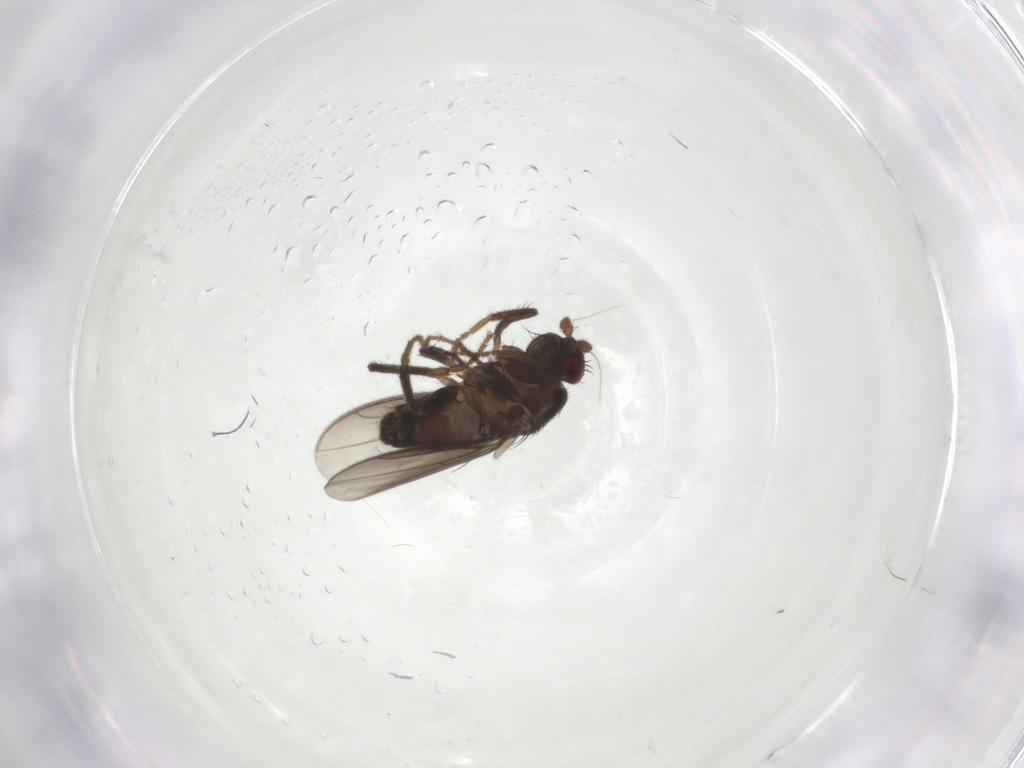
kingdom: Animalia
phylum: Arthropoda
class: Insecta
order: Diptera
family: Chironomidae
